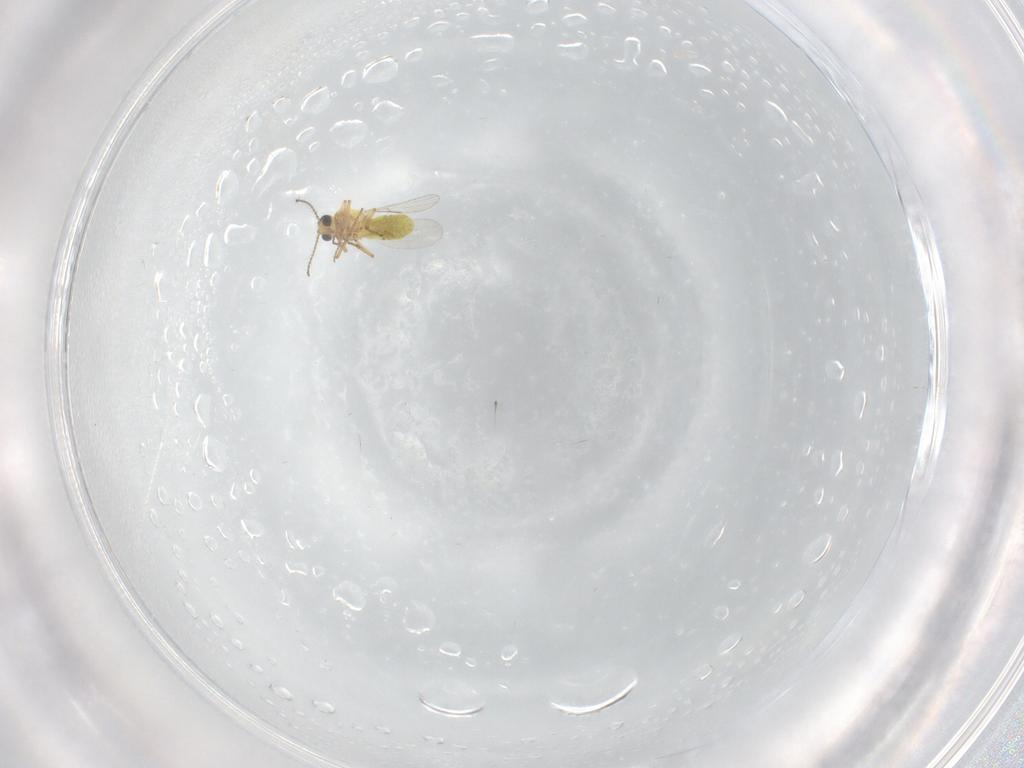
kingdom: Animalia
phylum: Arthropoda
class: Insecta
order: Diptera
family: Ceratopogonidae
